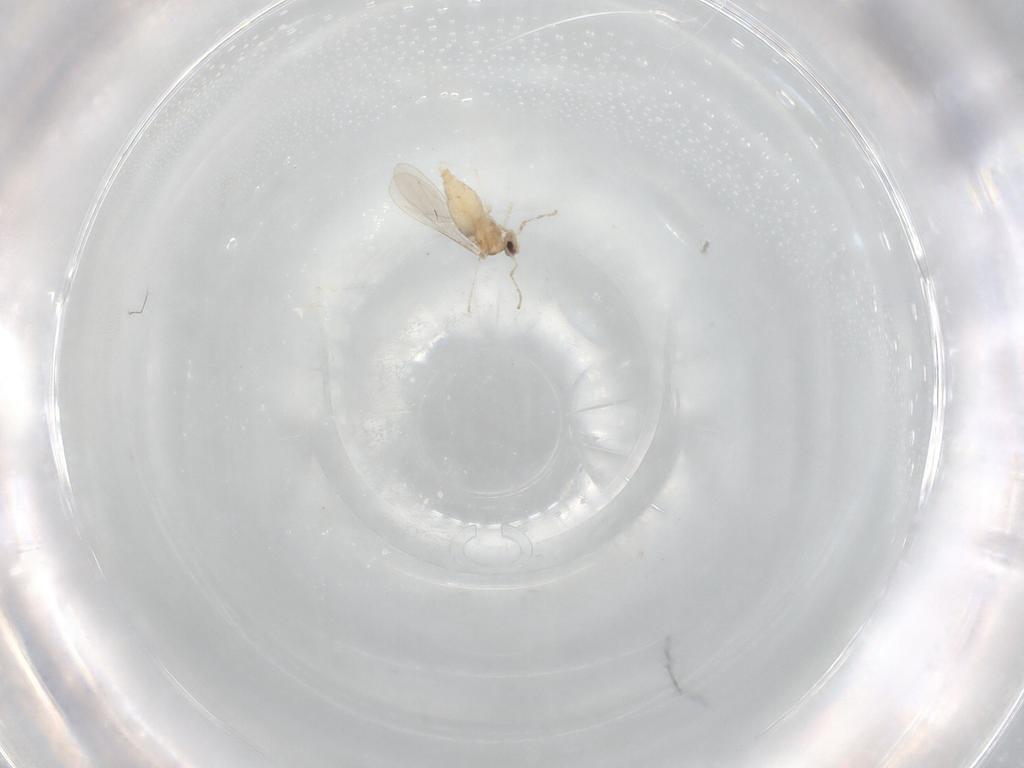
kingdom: Animalia
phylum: Arthropoda
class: Insecta
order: Diptera
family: Cecidomyiidae
